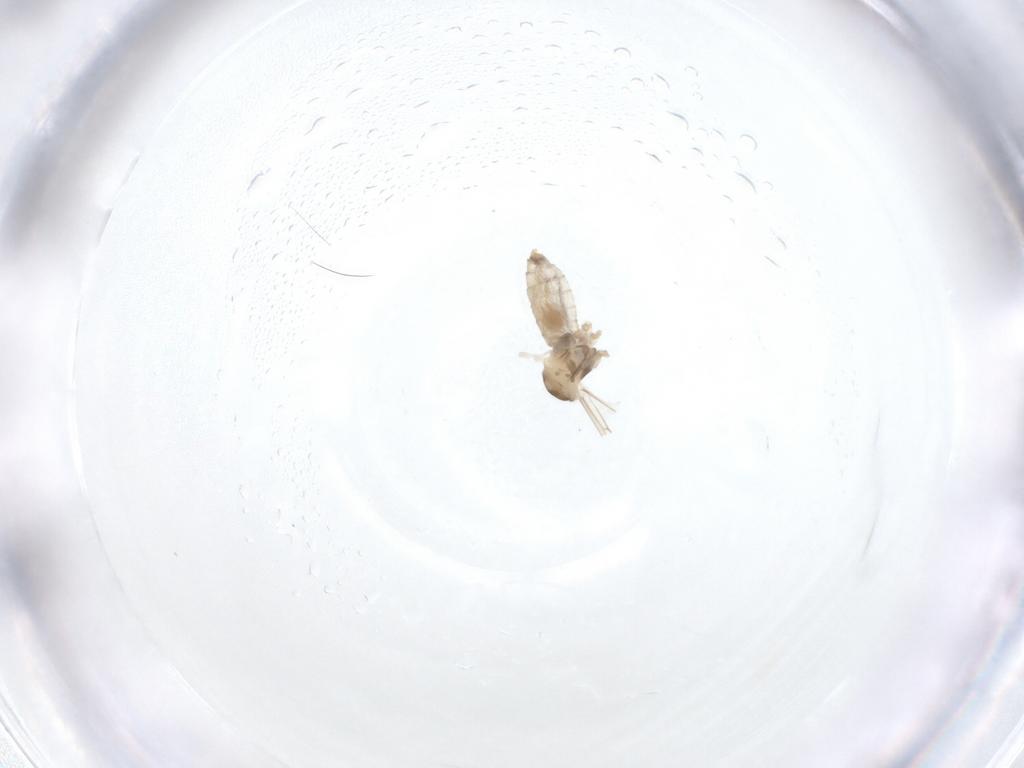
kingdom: Animalia
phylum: Arthropoda
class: Insecta
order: Diptera
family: Cecidomyiidae
